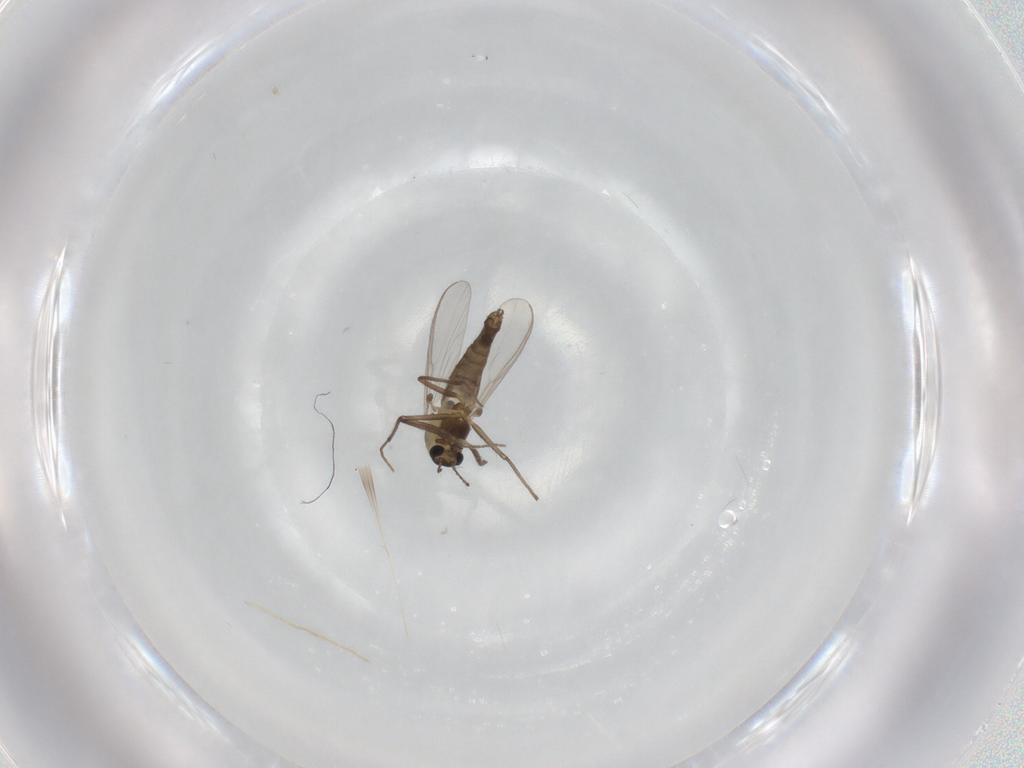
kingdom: Animalia
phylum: Arthropoda
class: Insecta
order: Diptera
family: Chironomidae
